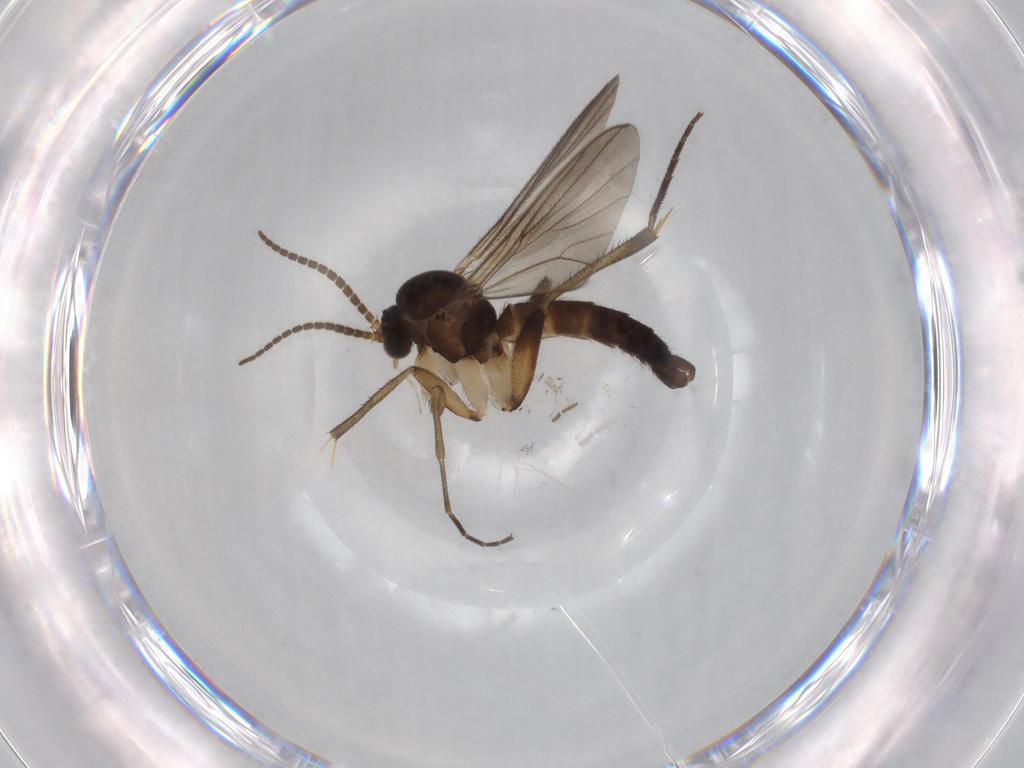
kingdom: Animalia
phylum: Arthropoda
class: Insecta
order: Diptera
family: Mycetophilidae
